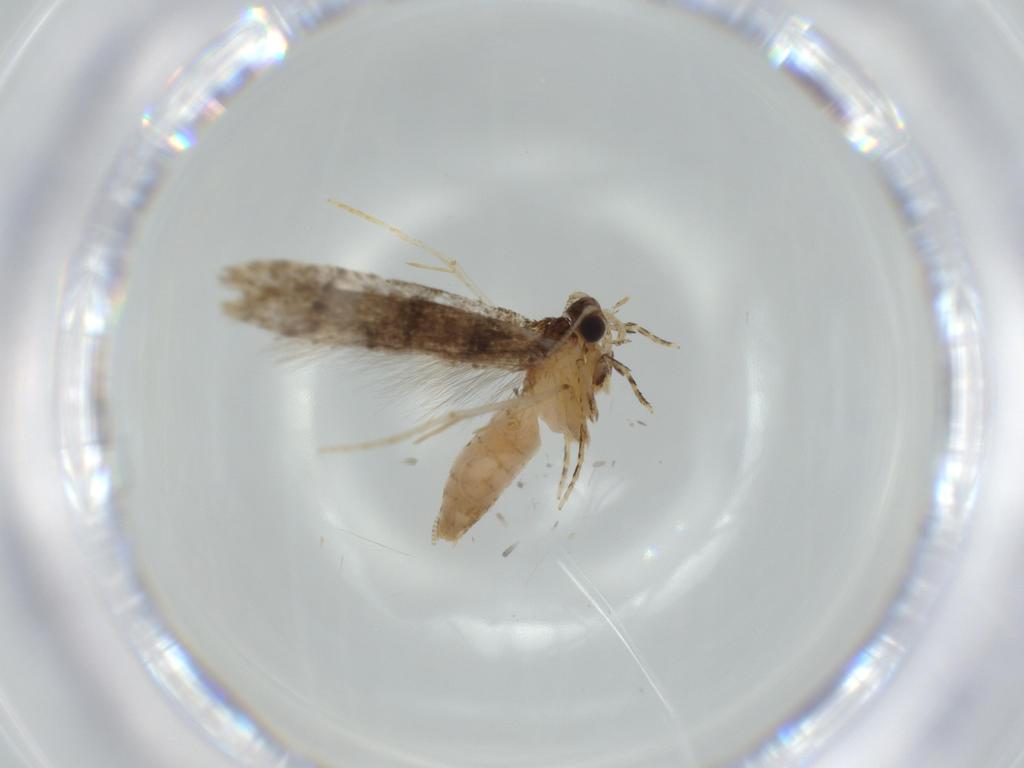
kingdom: Animalia
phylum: Arthropoda
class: Insecta
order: Lepidoptera
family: Tineidae
